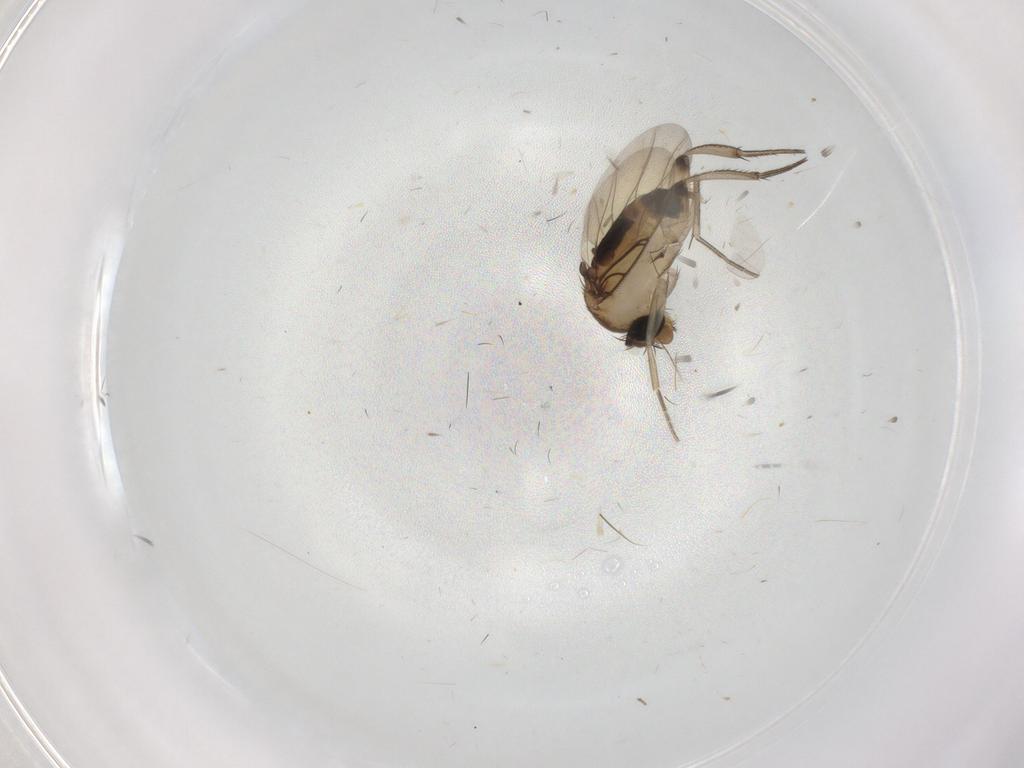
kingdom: Animalia
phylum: Arthropoda
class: Insecta
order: Diptera
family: Phoridae
